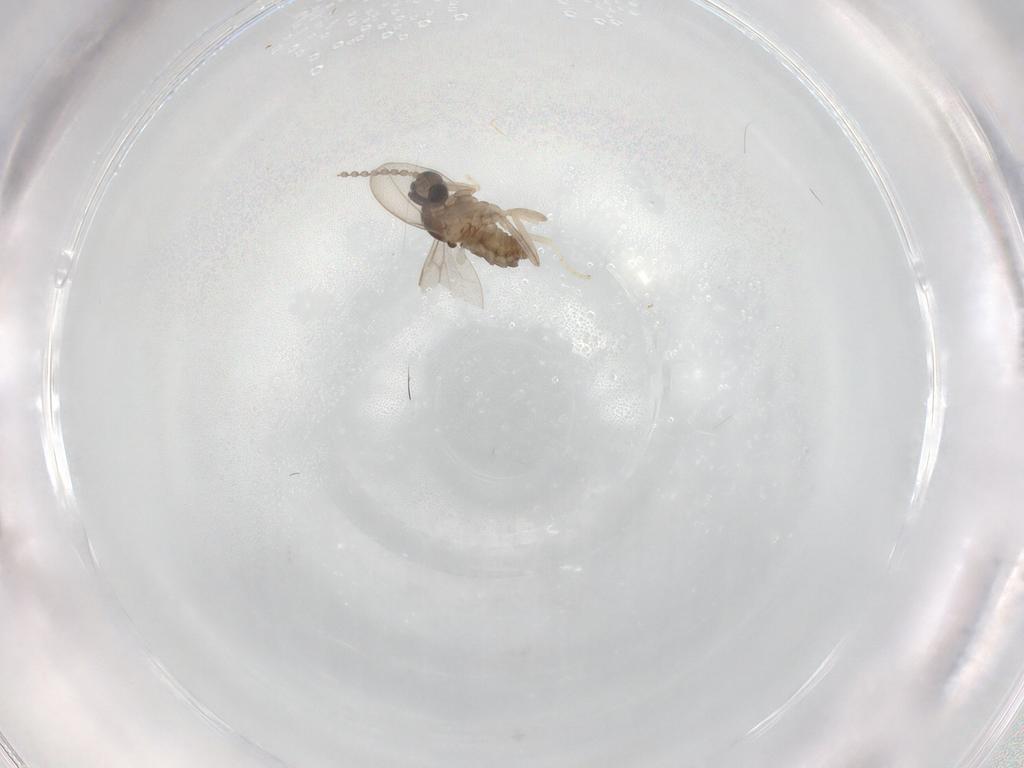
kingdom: Animalia
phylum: Arthropoda
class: Insecta
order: Diptera
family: Cecidomyiidae
